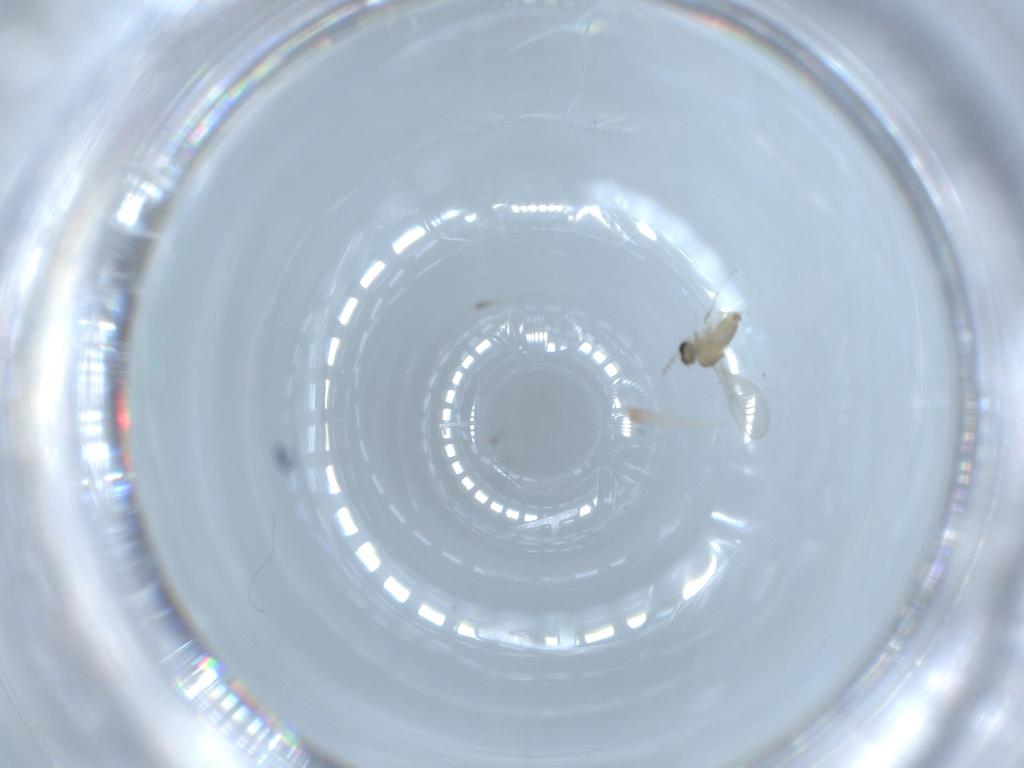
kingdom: Animalia
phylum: Arthropoda
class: Insecta
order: Diptera
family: Cecidomyiidae
